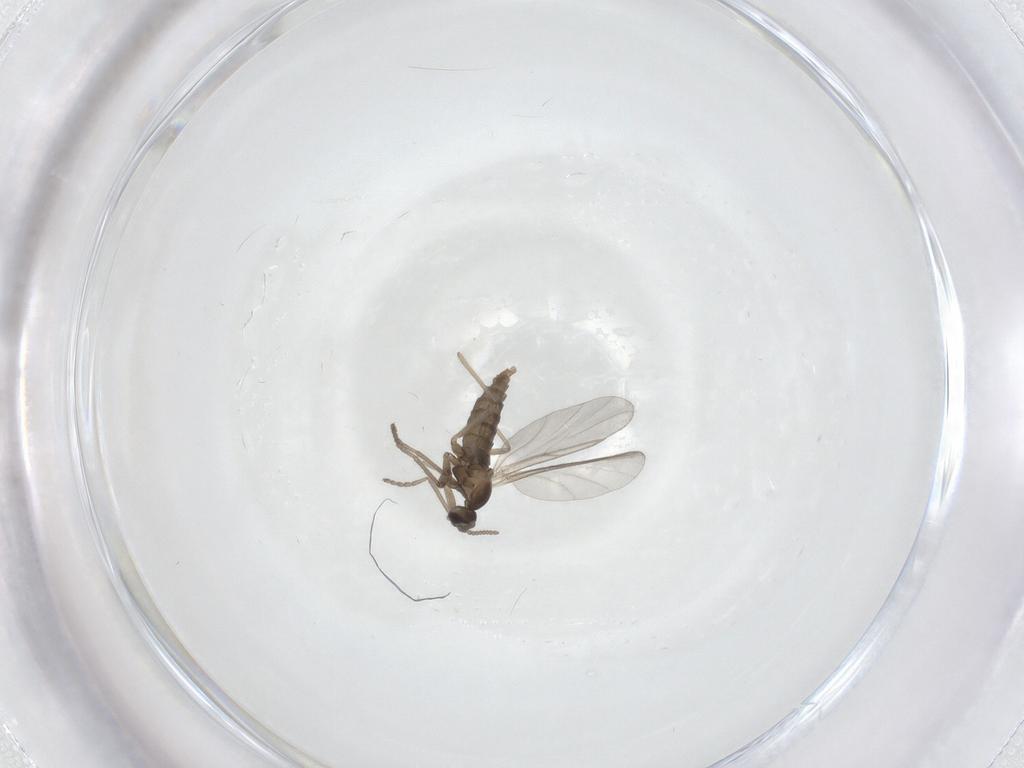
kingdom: Animalia
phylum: Arthropoda
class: Insecta
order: Diptera
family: Cecidomyiidae
